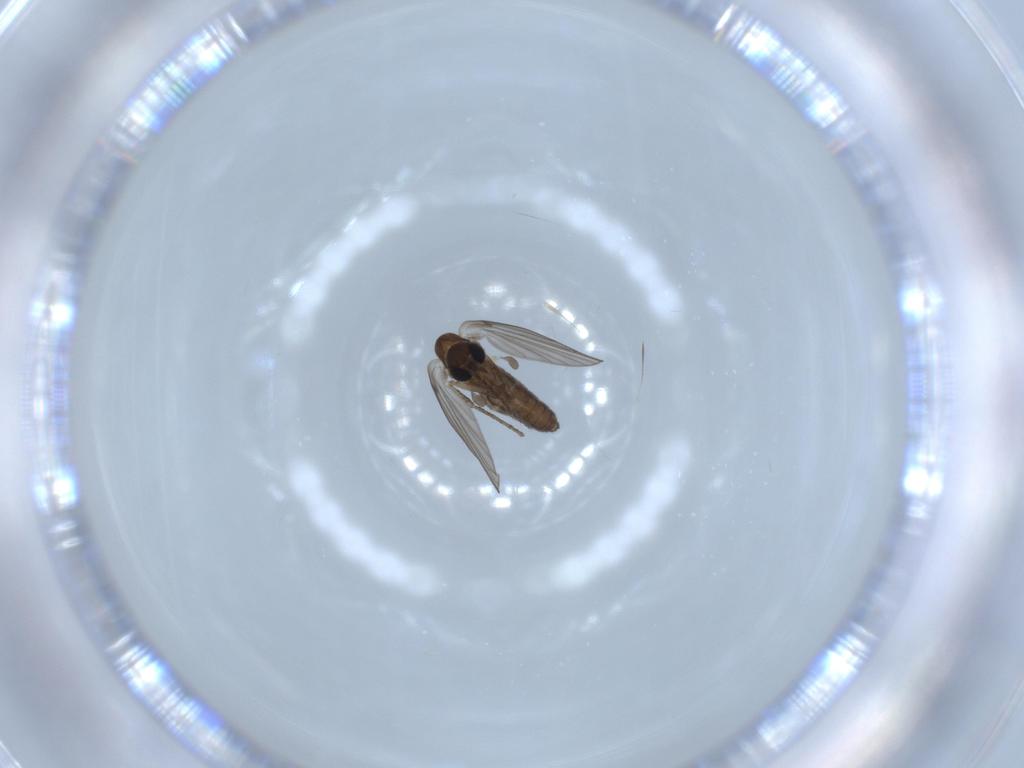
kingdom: Animalia
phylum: Arthropoda
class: Insecta
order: Diptera
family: Psychodidae
